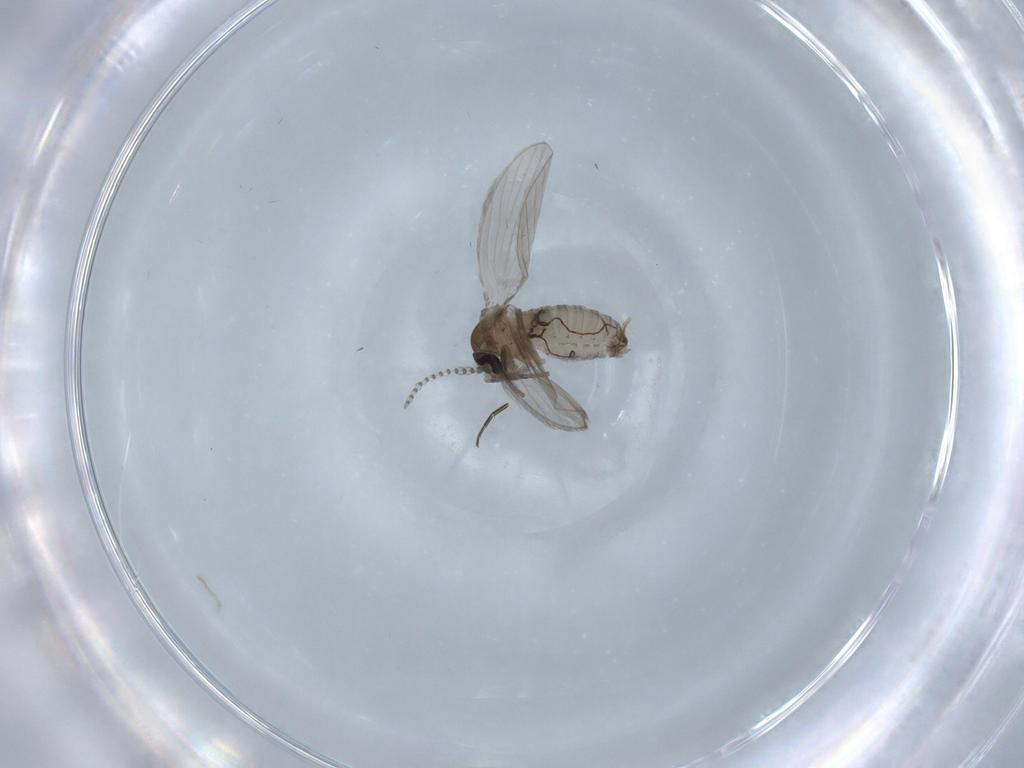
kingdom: Animalia
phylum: Arthropoda
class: Insecta
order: Diptera
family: Psychodidae
